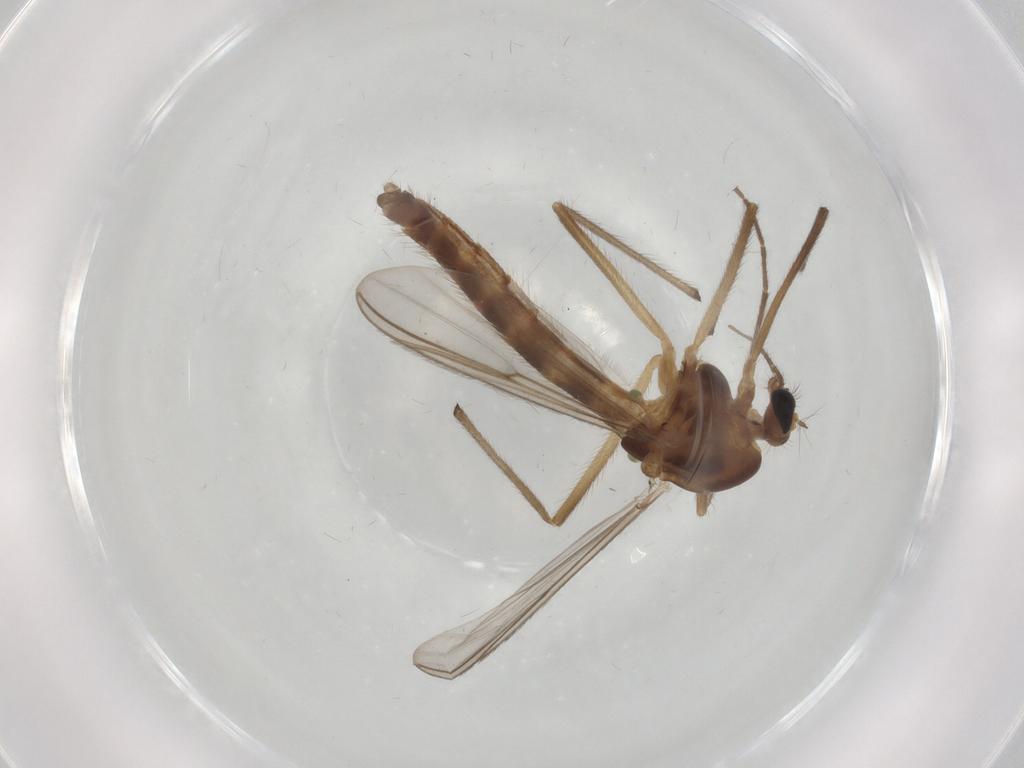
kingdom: Animalia
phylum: Arthropoda
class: Insecta
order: Diptera
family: Chironomidae
